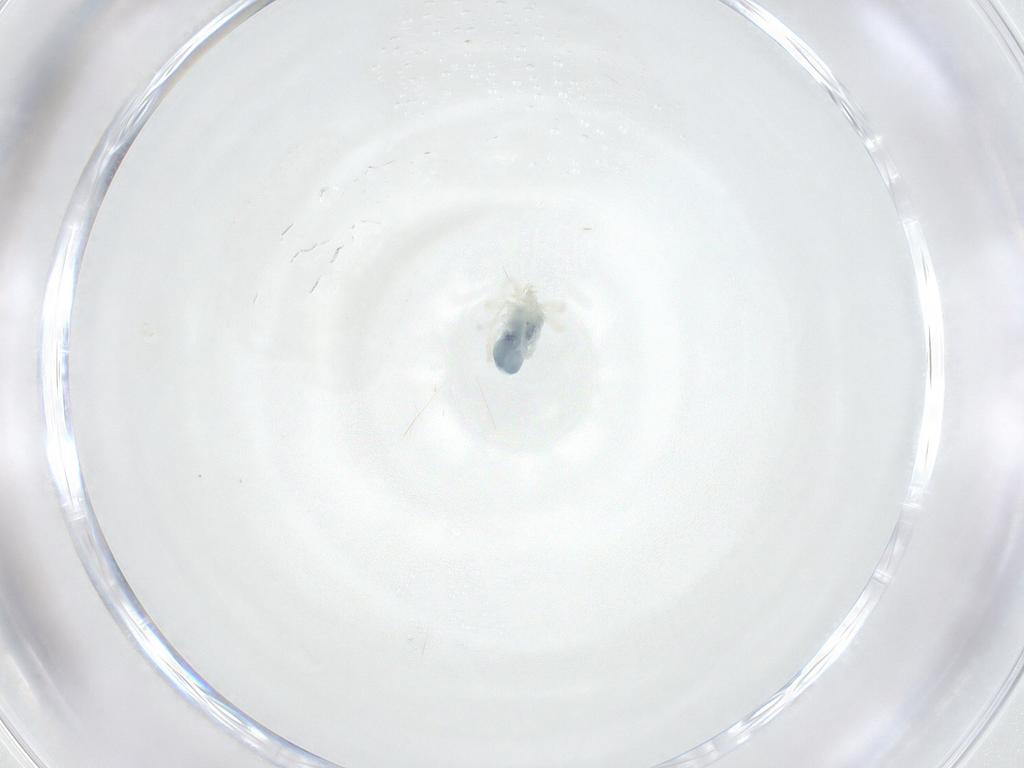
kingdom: Animalia
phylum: Arthropoda
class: Arachnida
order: Trombidiformes
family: Anystidae
